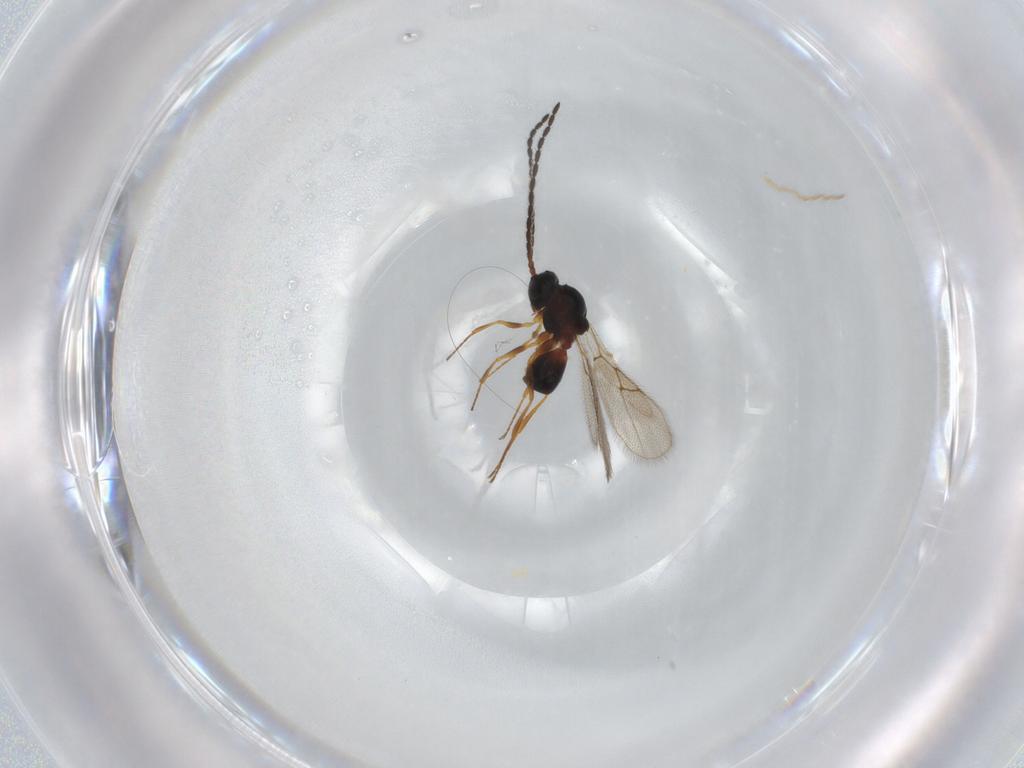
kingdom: Animalia
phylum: Arthropoda
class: Insecta
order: Hymenoptera
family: Figitidae
